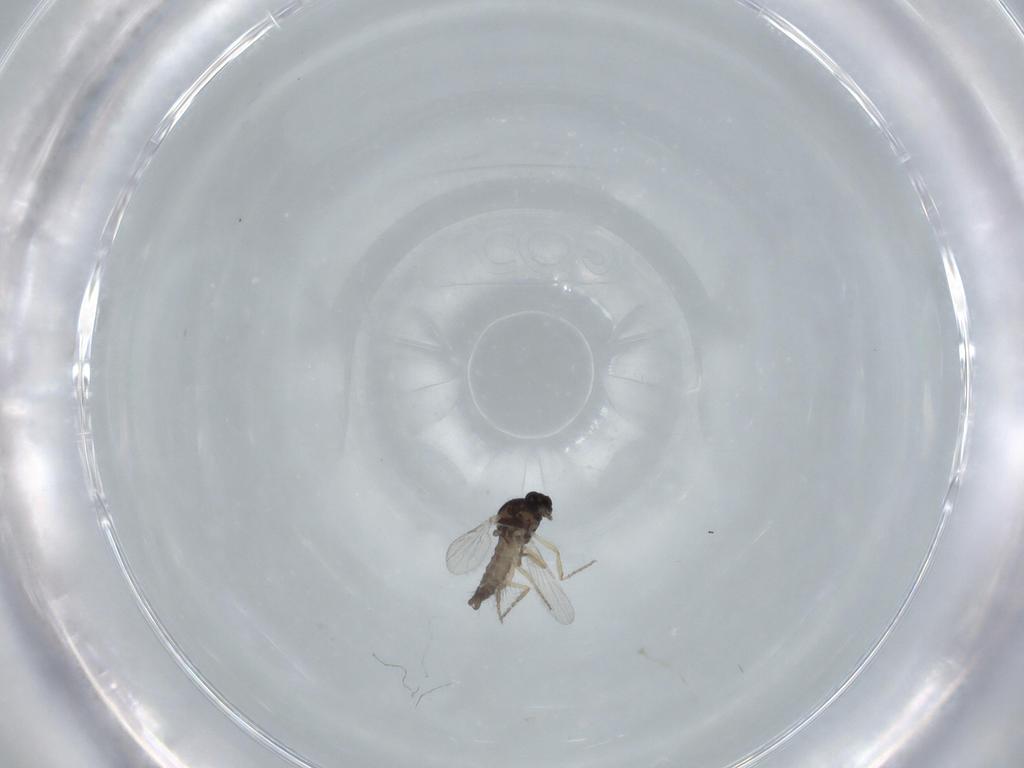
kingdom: Animalia
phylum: Arthropoda
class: Insecta
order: Diptera
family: Ceratopogonidae
